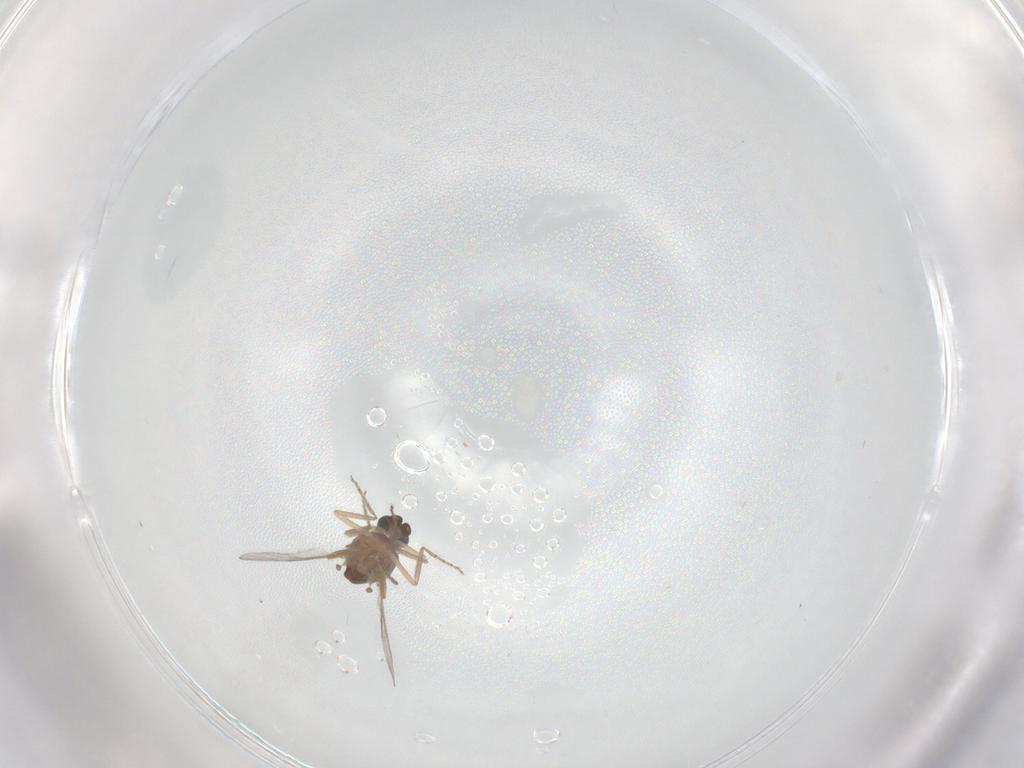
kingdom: Animalia
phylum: Arthropoda
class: Insecta
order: Diptera
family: Ceratopogonidae
